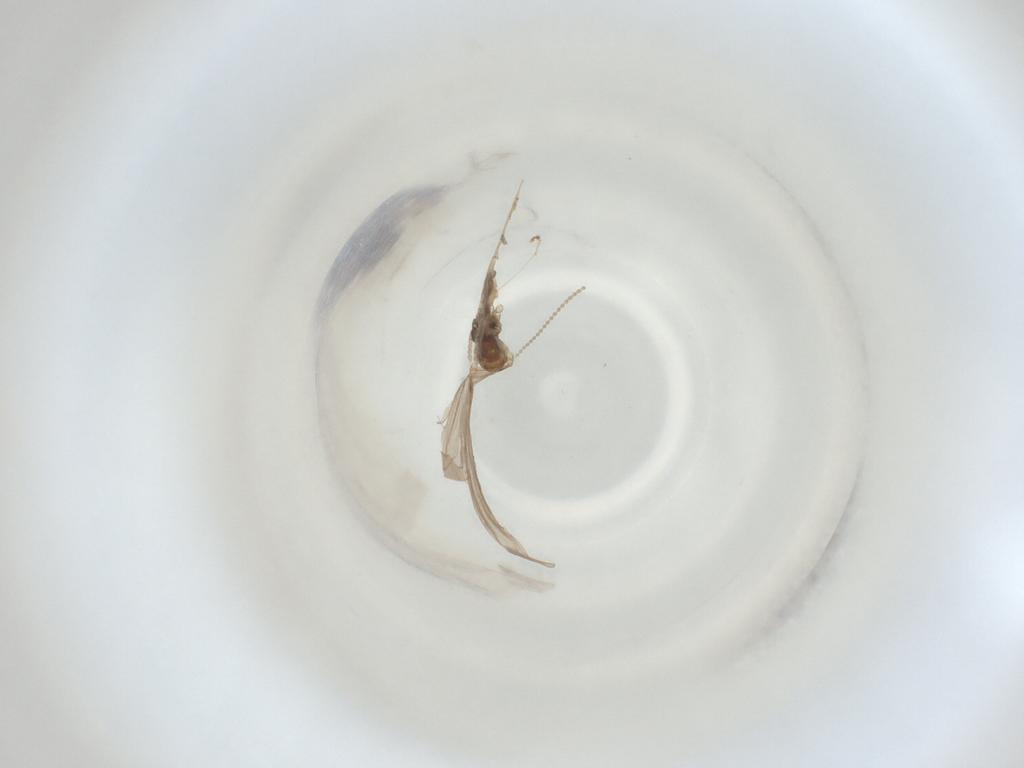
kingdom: Animalia
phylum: Arthropoda
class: Insecta
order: Diptera
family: Cecidomyiidae
